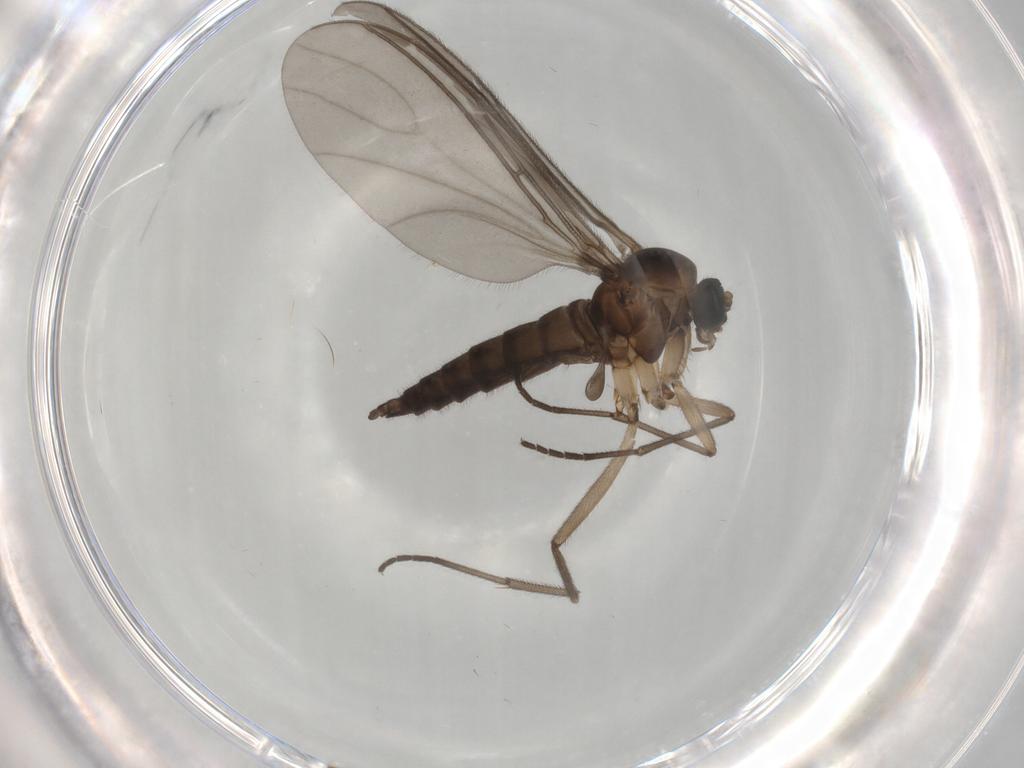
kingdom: Animalia
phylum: Arthropoda
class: Insecta
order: Diptera
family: Sciaridae
